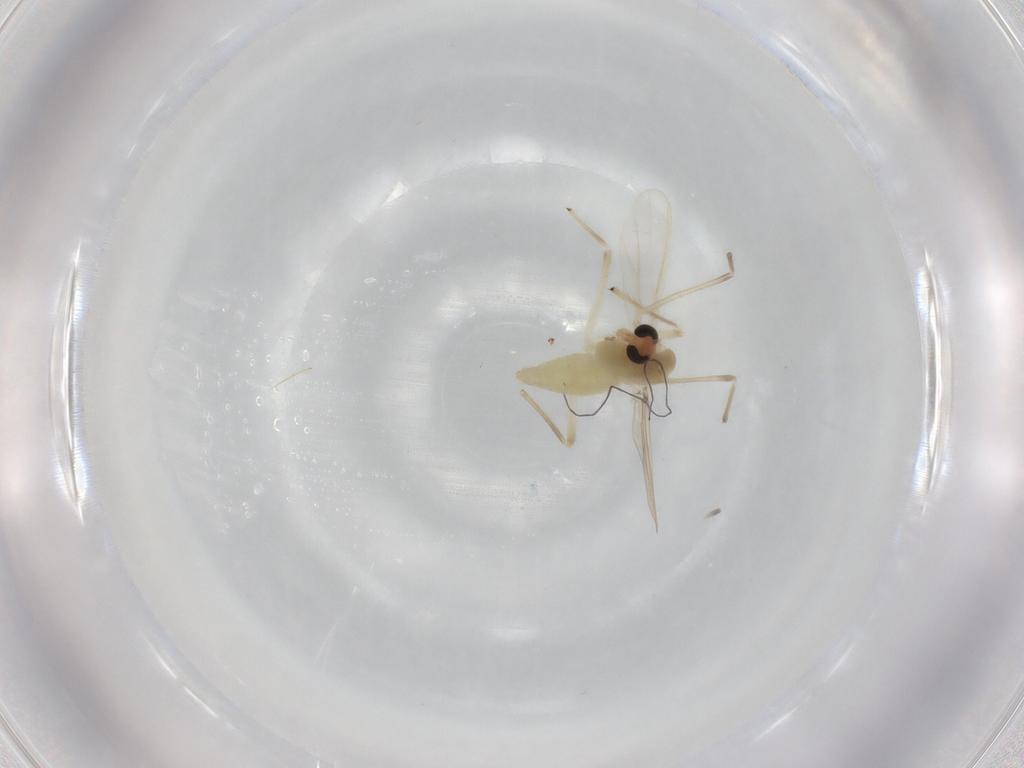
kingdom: Animalia
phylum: Arthropoda
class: Insecta
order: Diptera
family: Chironomidae
